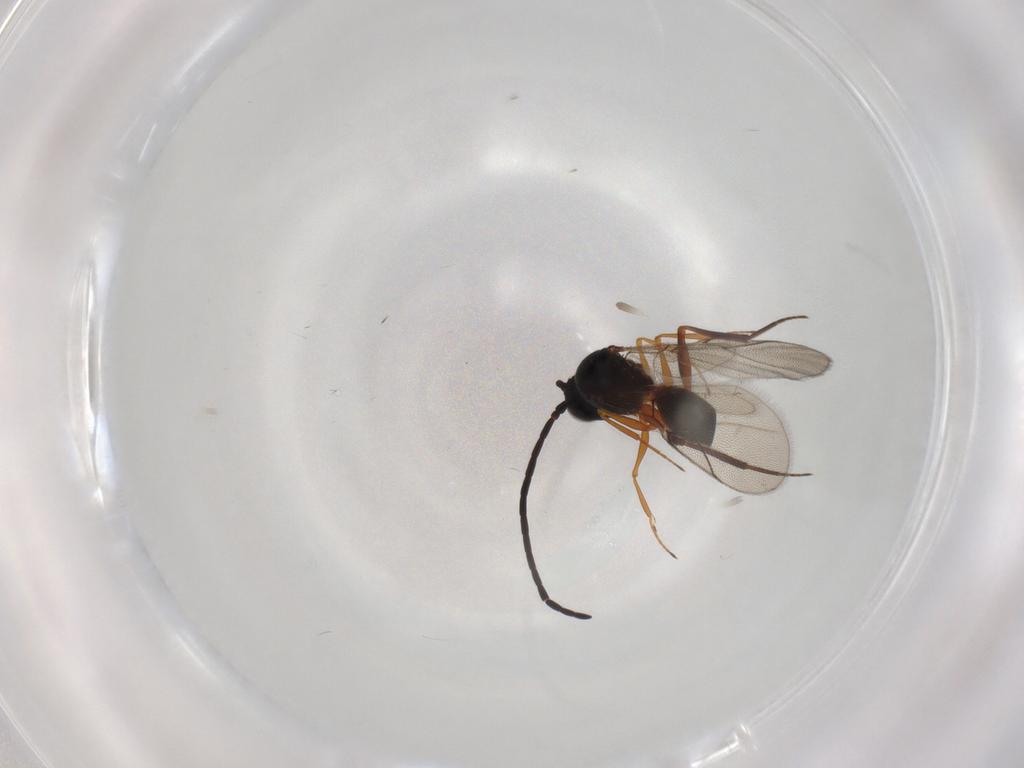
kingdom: Animalia
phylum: Arthropoda
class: Insecta
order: Hymenoptera
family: Figitidae
